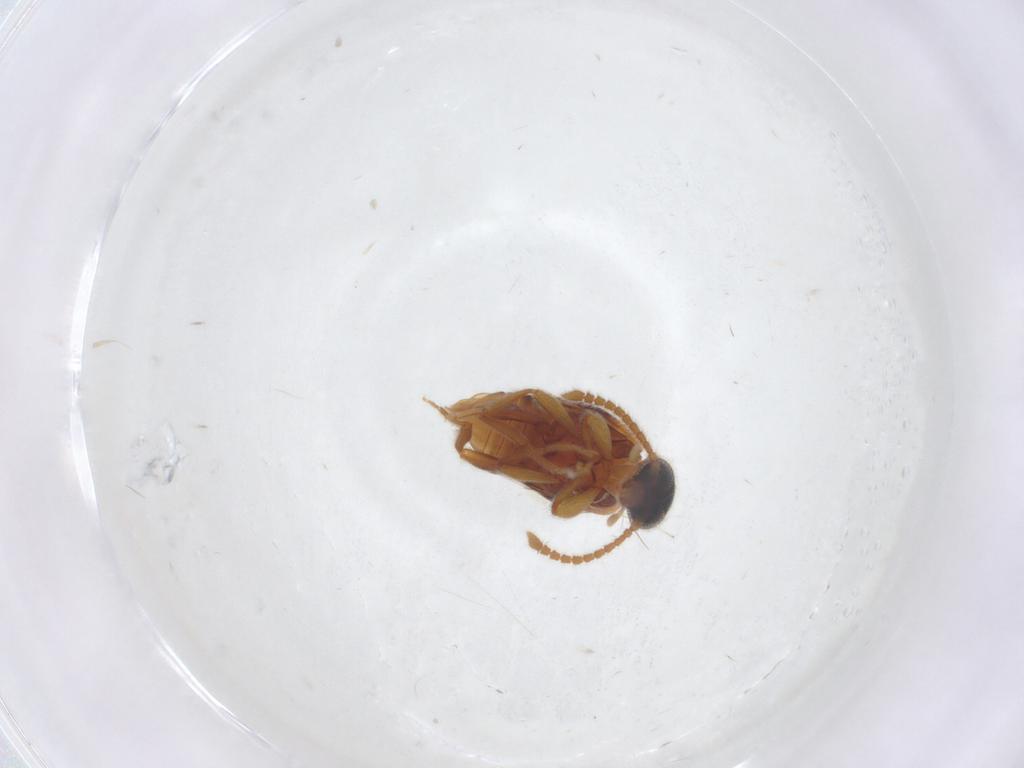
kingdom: Animalia
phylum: Arthropoda
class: Insecta
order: Coleoptera
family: Aderidae
